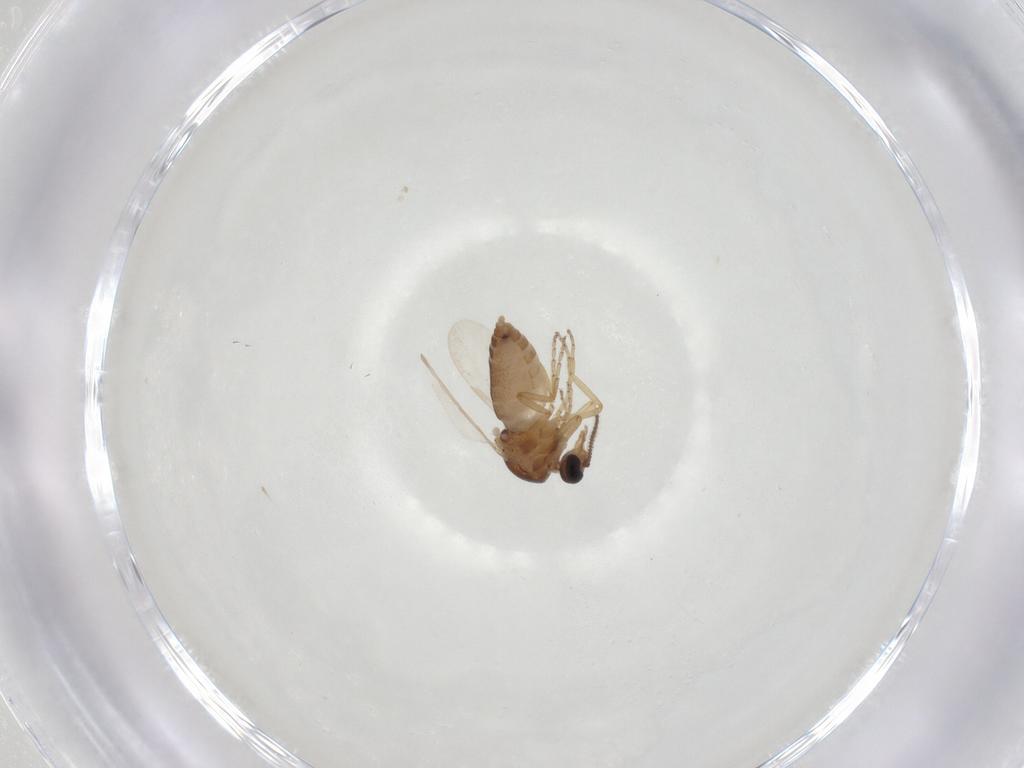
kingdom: Animalia
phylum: Arthropoda
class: Insecta
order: Diptera
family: Ceratopogonidae
